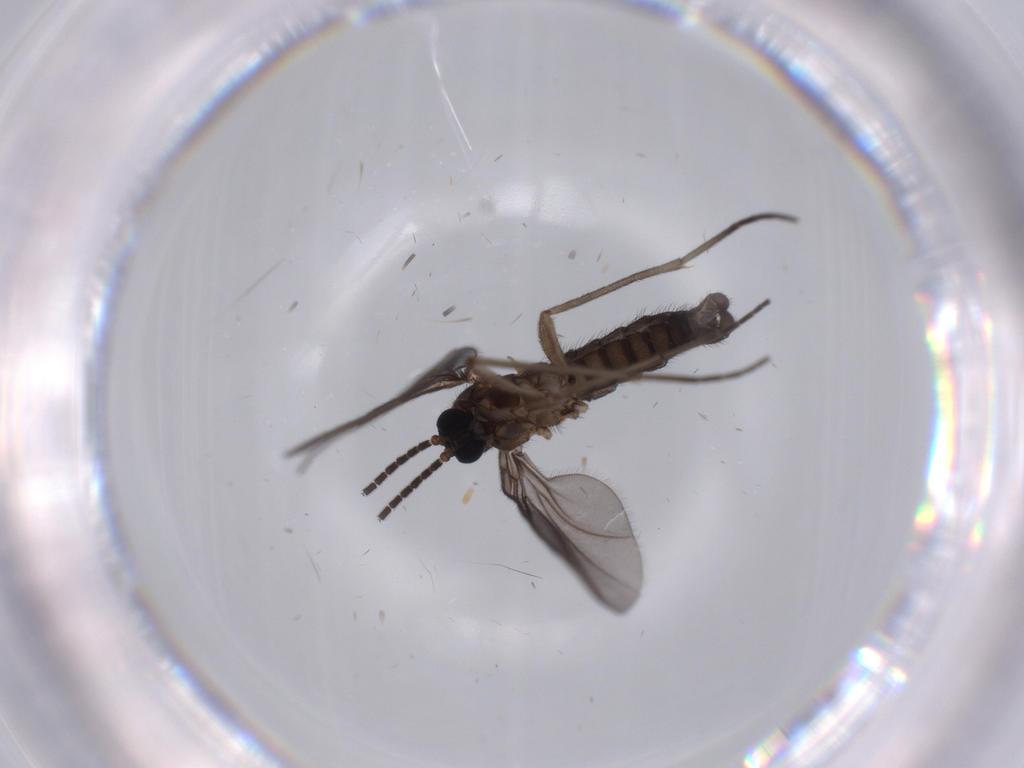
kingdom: Animalia
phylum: Arthropoda
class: Insecta
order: Diptera
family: Sciaridae
